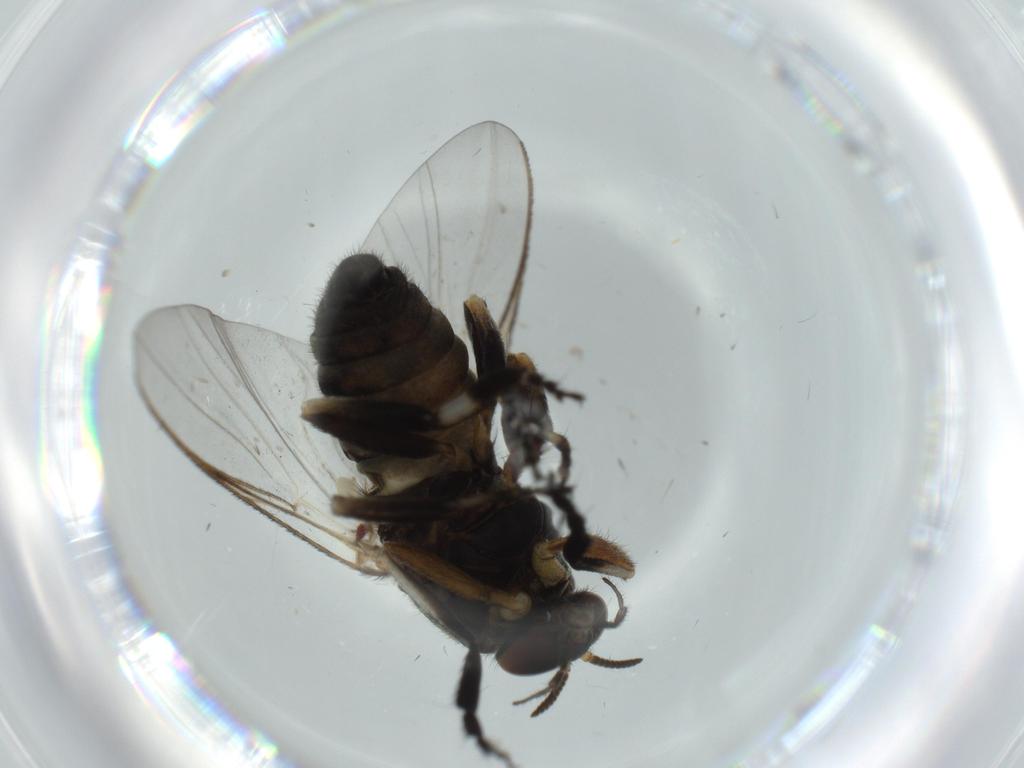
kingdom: Animalia
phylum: Arthropoda
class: Insecta
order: Diptera
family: Psychodidae
